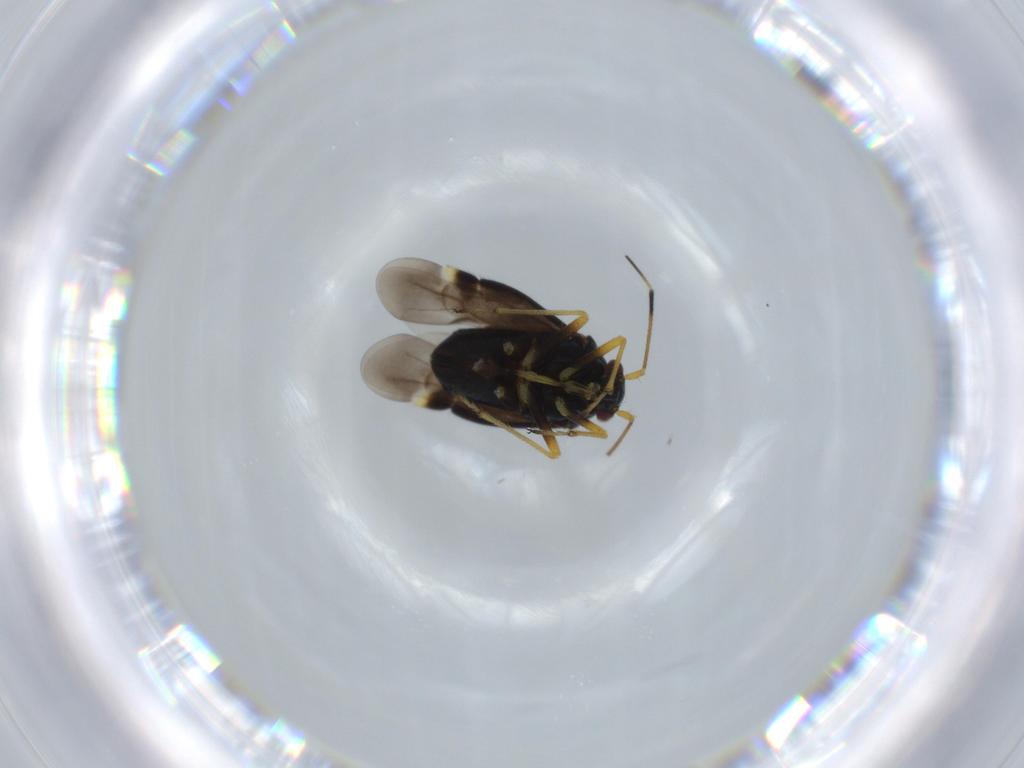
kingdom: Animalia
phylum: Arthropoda
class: Insecta
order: Hemiptera
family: Miridae
